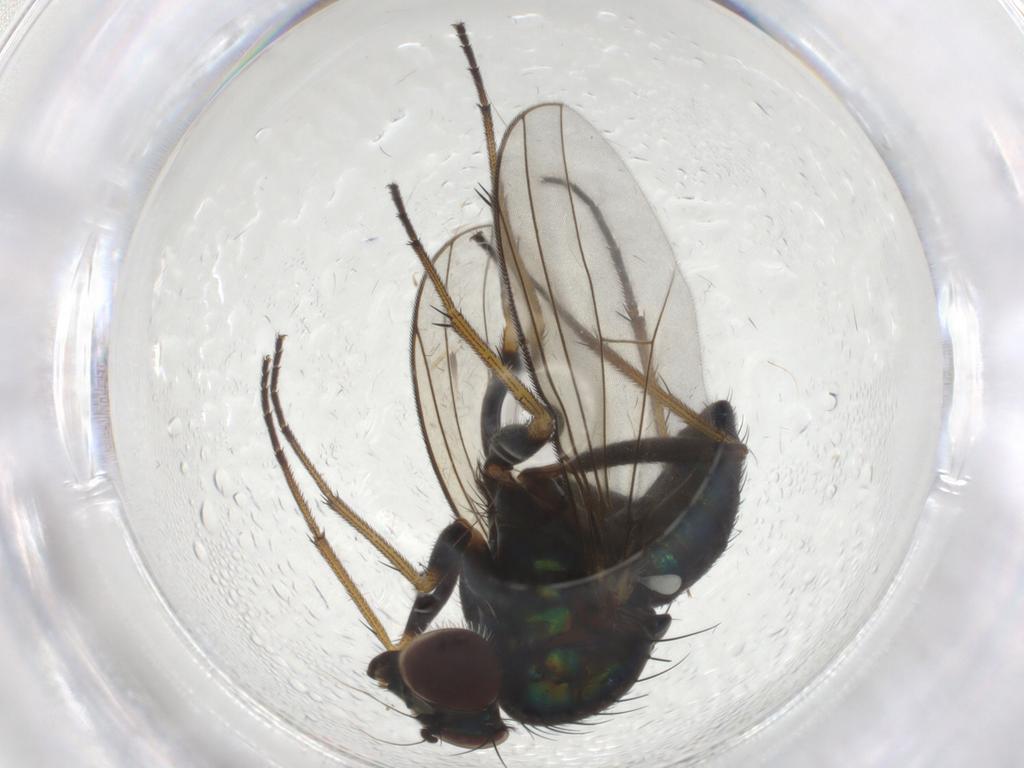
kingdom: Animalia
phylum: Arthropoda
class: Insecta
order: Diptera
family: Dolichopodidae
